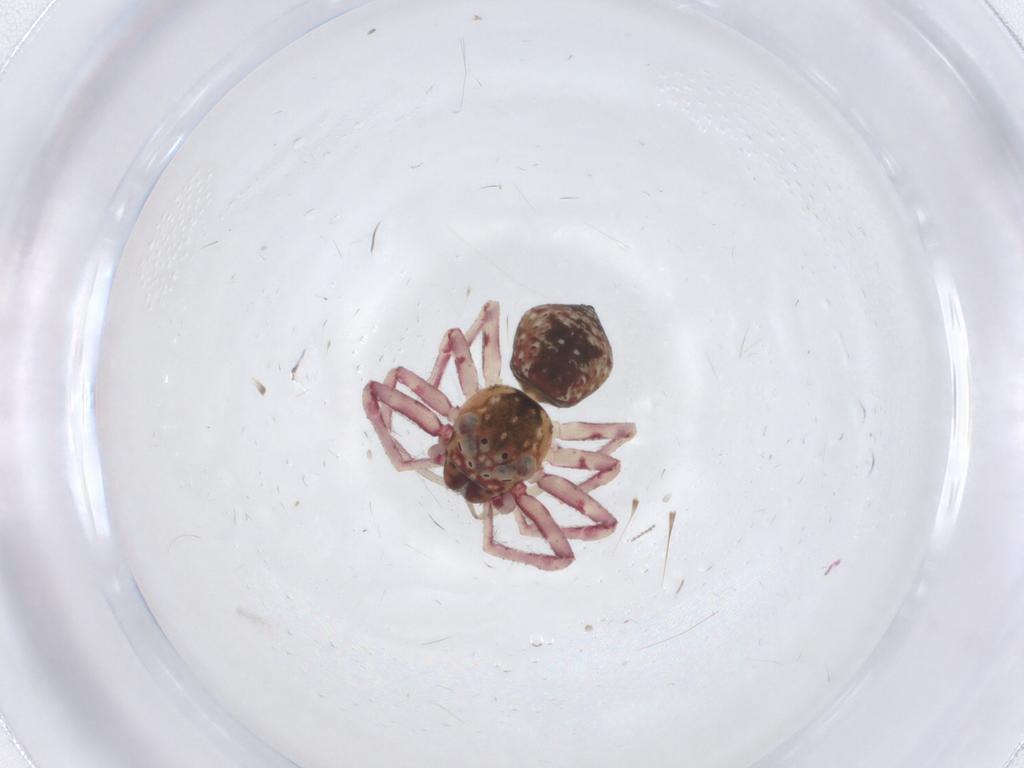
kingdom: Animalia
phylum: Arthropoda
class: Arachnida
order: Araneae
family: Thomisidae
